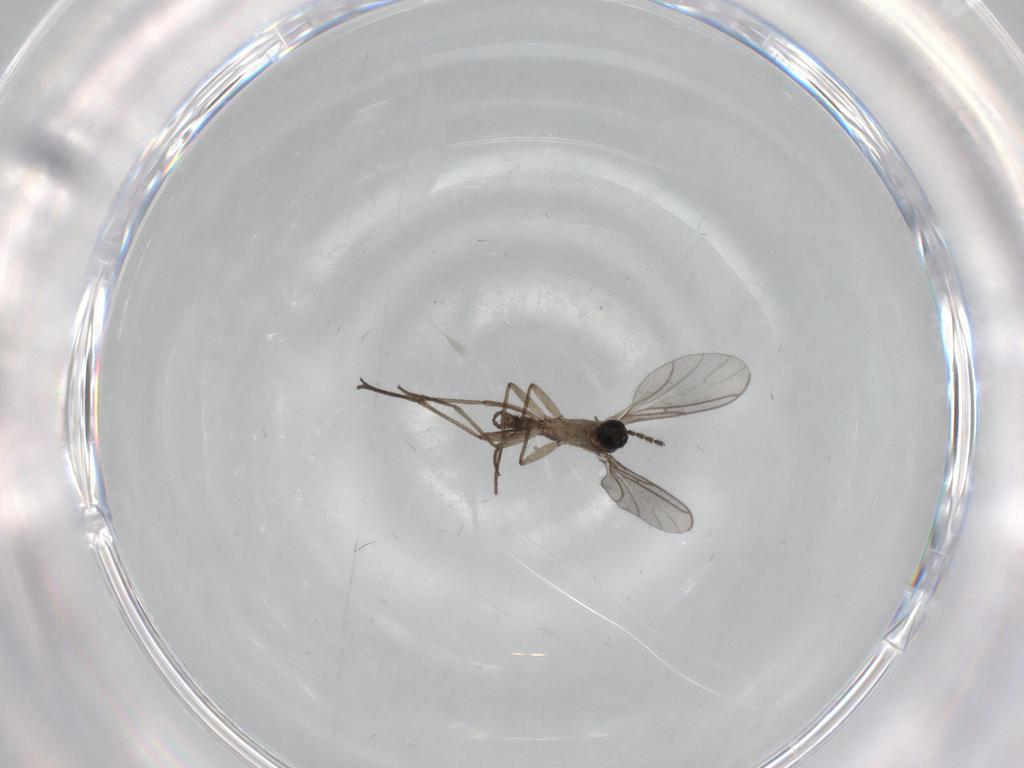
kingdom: Animalia
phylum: Arthropoda
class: Insecta
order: Diptera
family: Sciaridae
